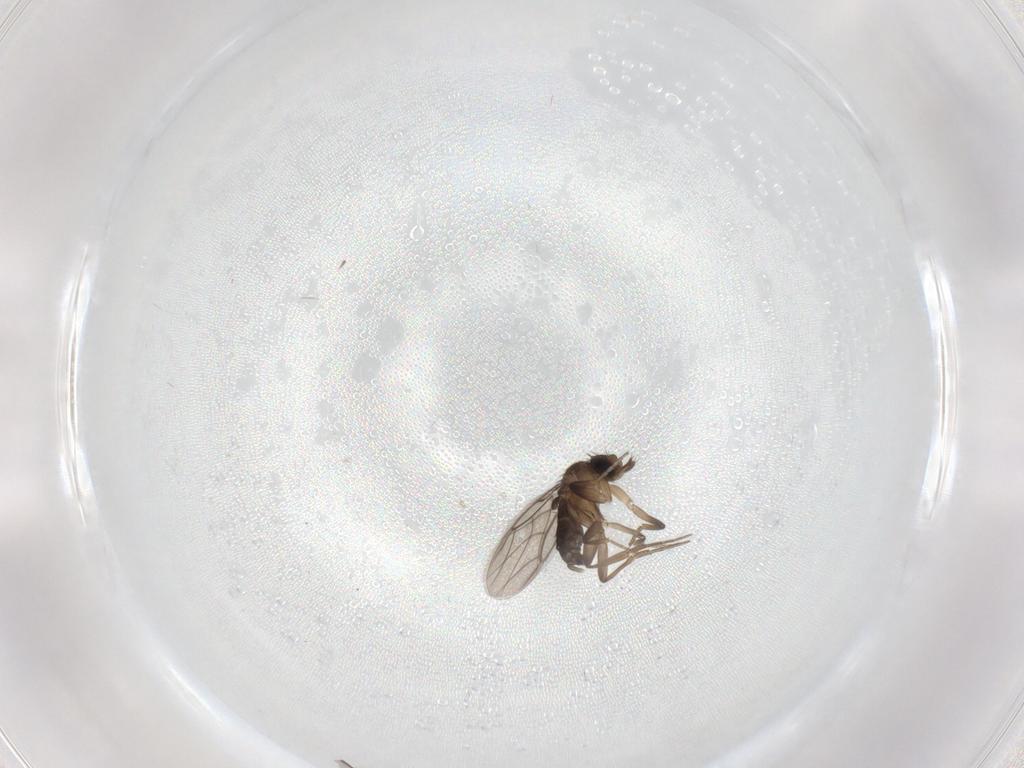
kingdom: Animalia
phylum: Arthropoda
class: Insecta
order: Diptera
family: Phoridae
